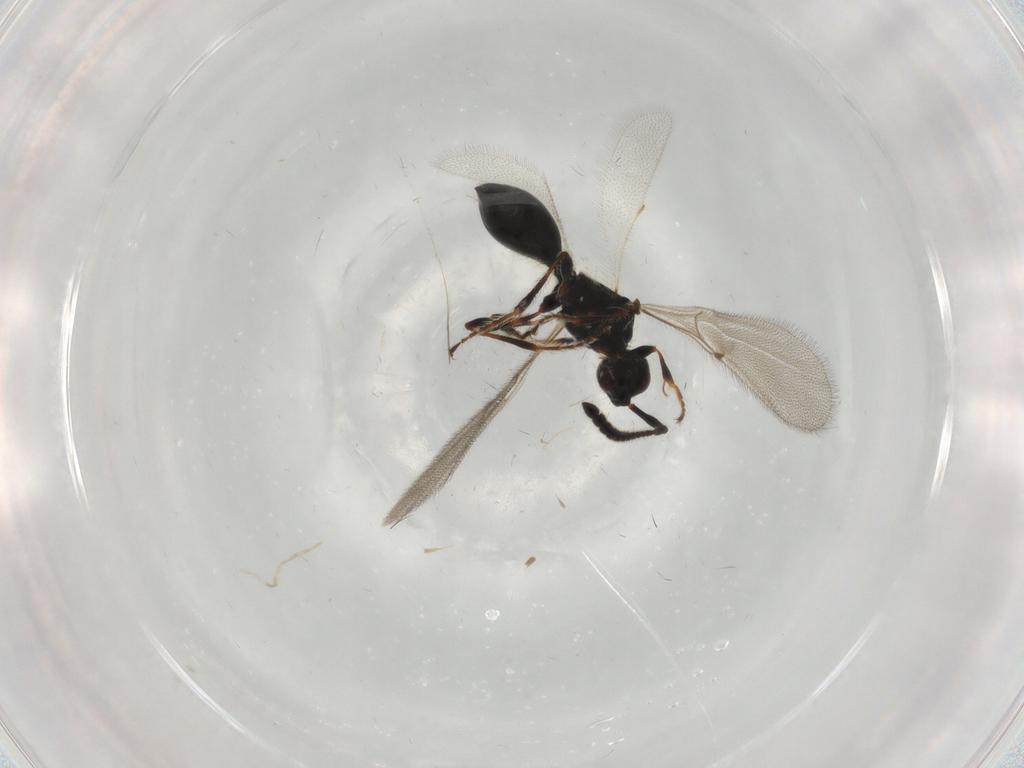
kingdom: Animalia
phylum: Arthropoda
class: Insecta
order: Hymenoptera
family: Diapriidae
